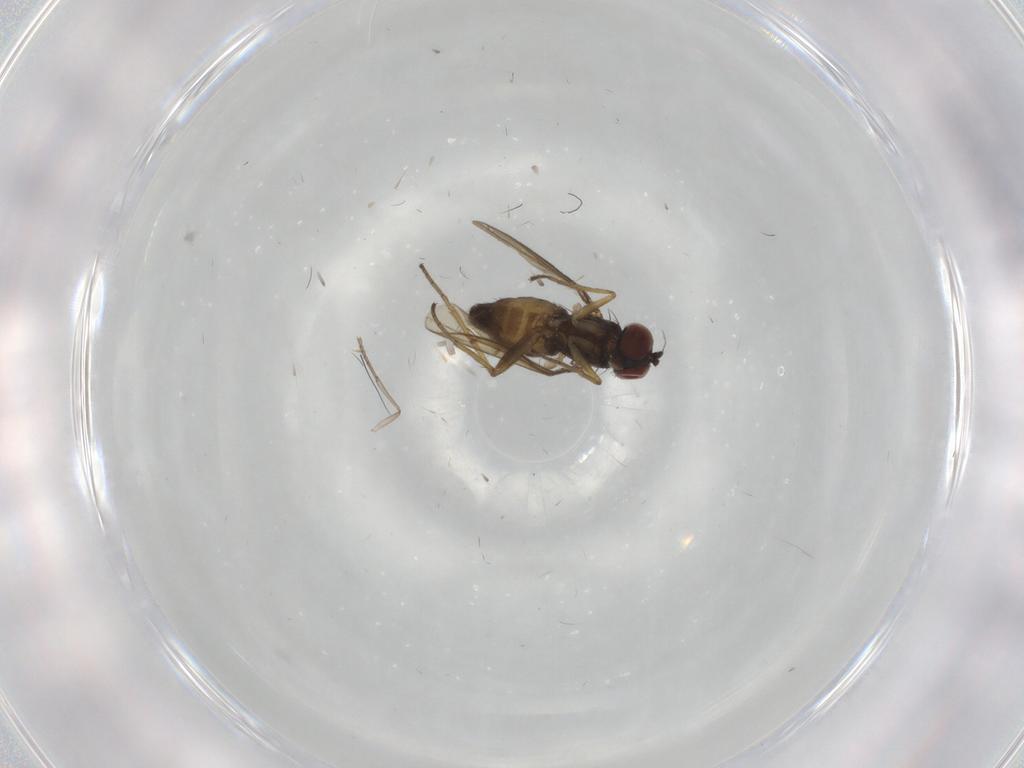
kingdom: Animalia
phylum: Arthropoda
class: Insecta
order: Diptera
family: Dolichopodidae
